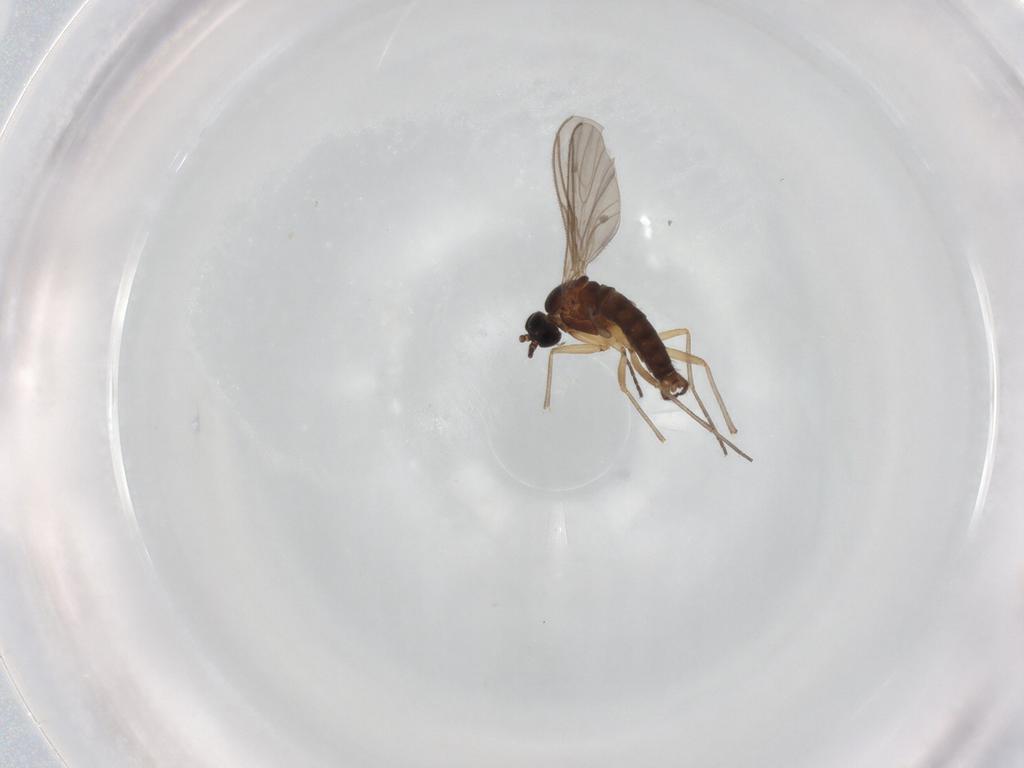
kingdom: Animalia
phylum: Arthropoda
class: Insecta
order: Diptera
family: Sciaridae
